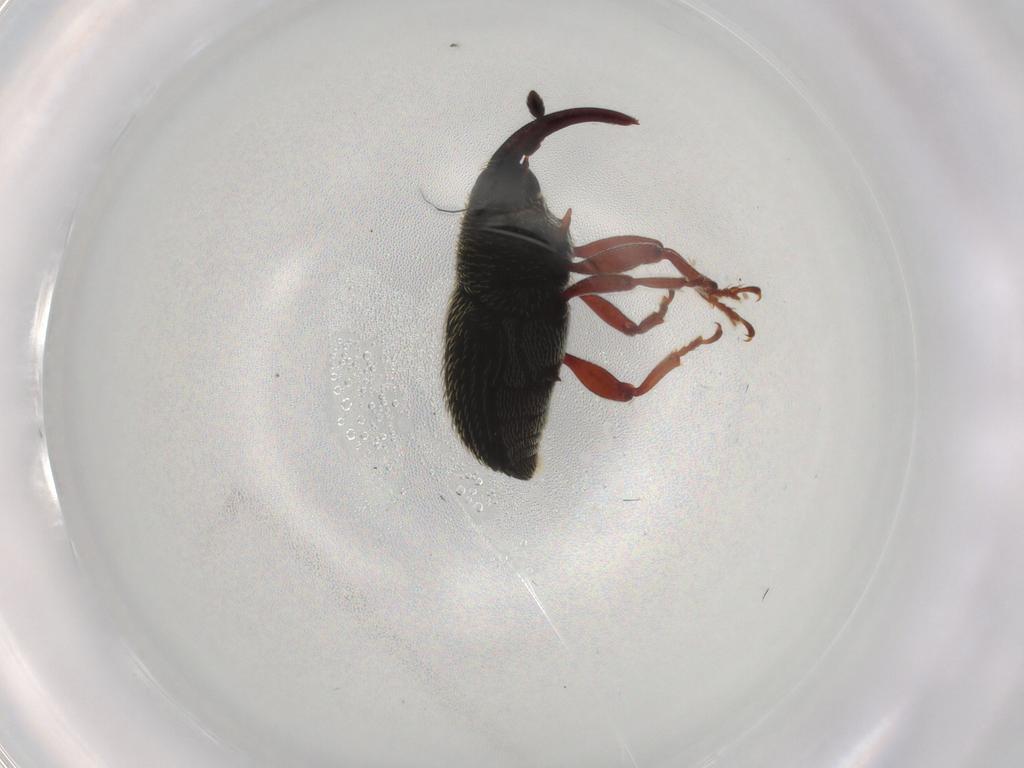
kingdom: Animalia
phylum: Arthropoda
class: Insecta
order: Coleoptera
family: Curculionidae
